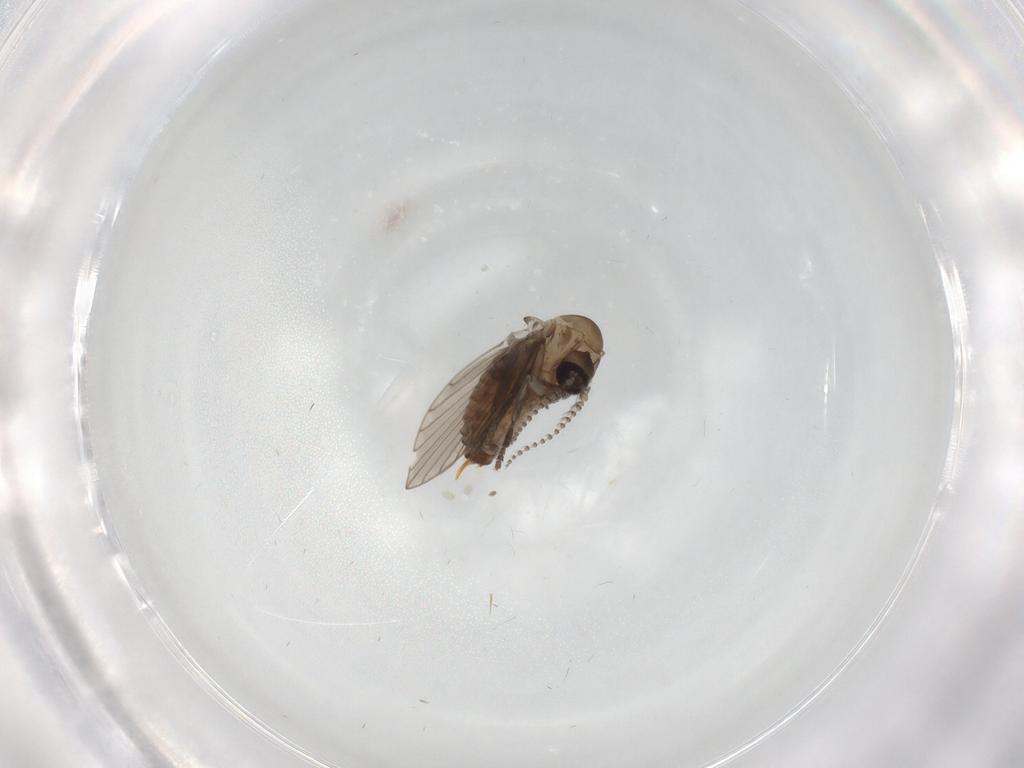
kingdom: Animalia
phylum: Arthropoda
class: Insecta
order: Diptera
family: Psychodidae
